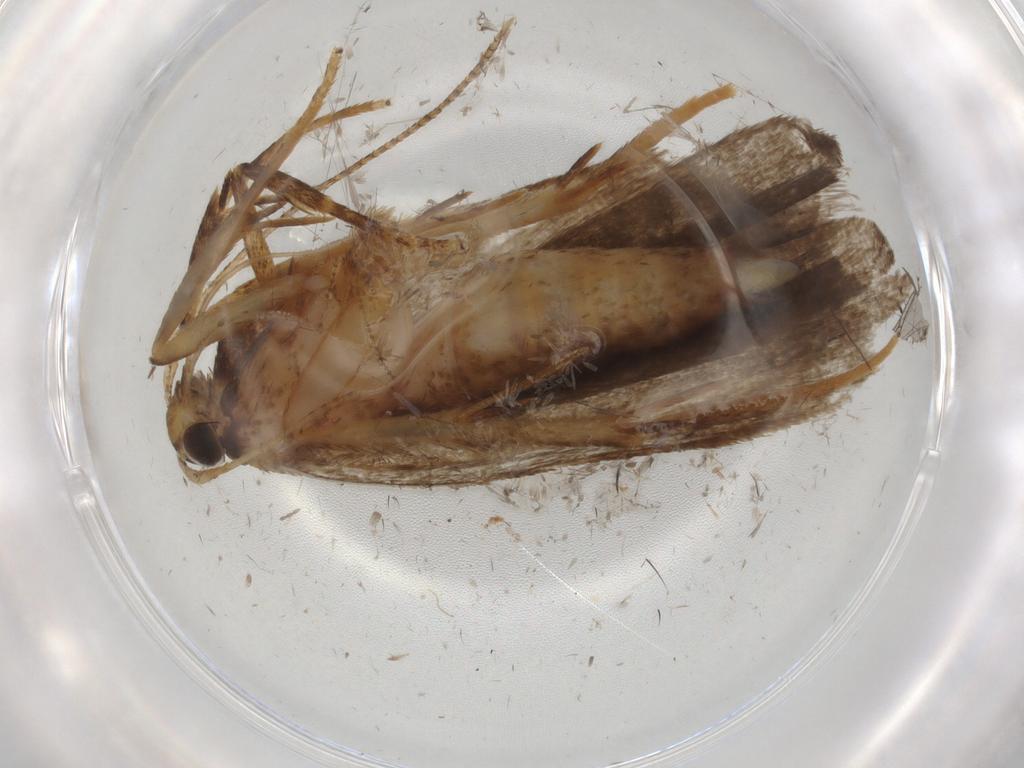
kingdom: Animalia
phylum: Arthropoda
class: Insecta
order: Lepidoptera
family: Autostichidae
